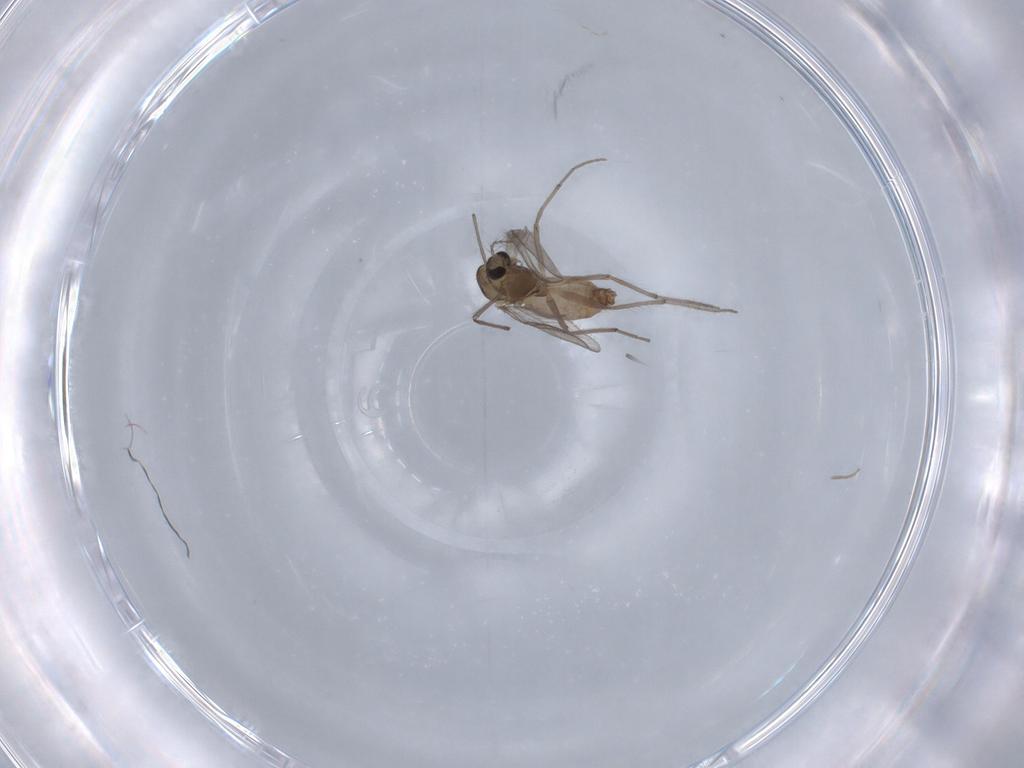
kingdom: Animalia
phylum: Arthropoda
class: Insecta
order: Diptera
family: Chironomidae
